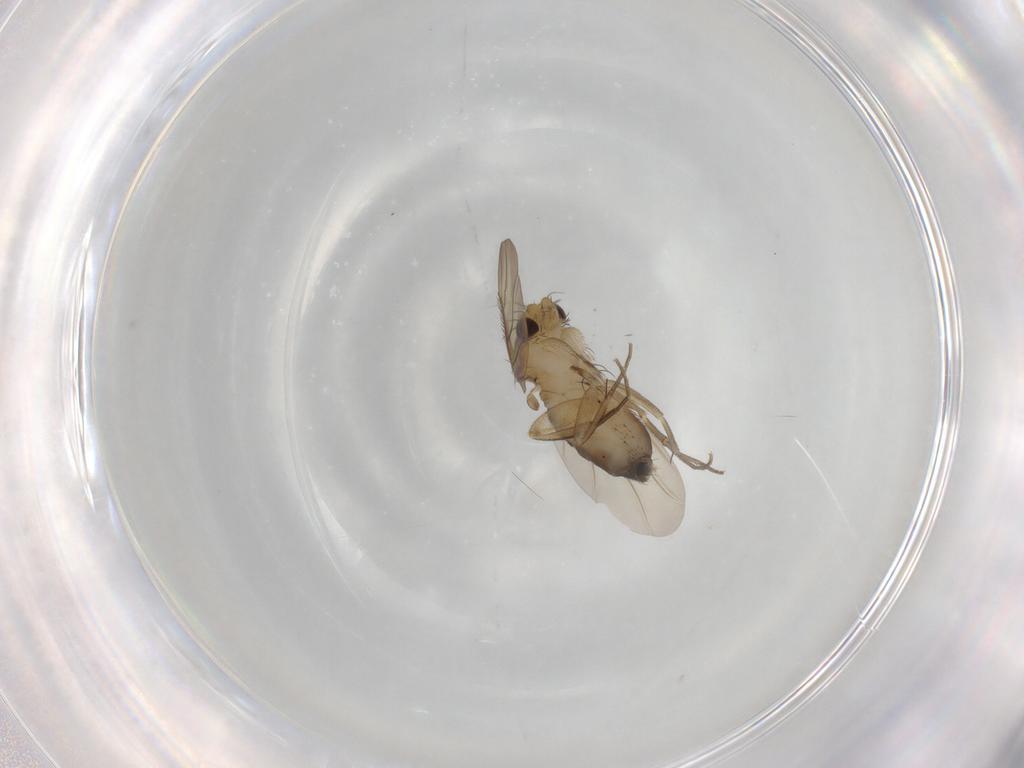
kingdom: Animalia
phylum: Arthropoda
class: Insecta
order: Diptera
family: Phoridae
